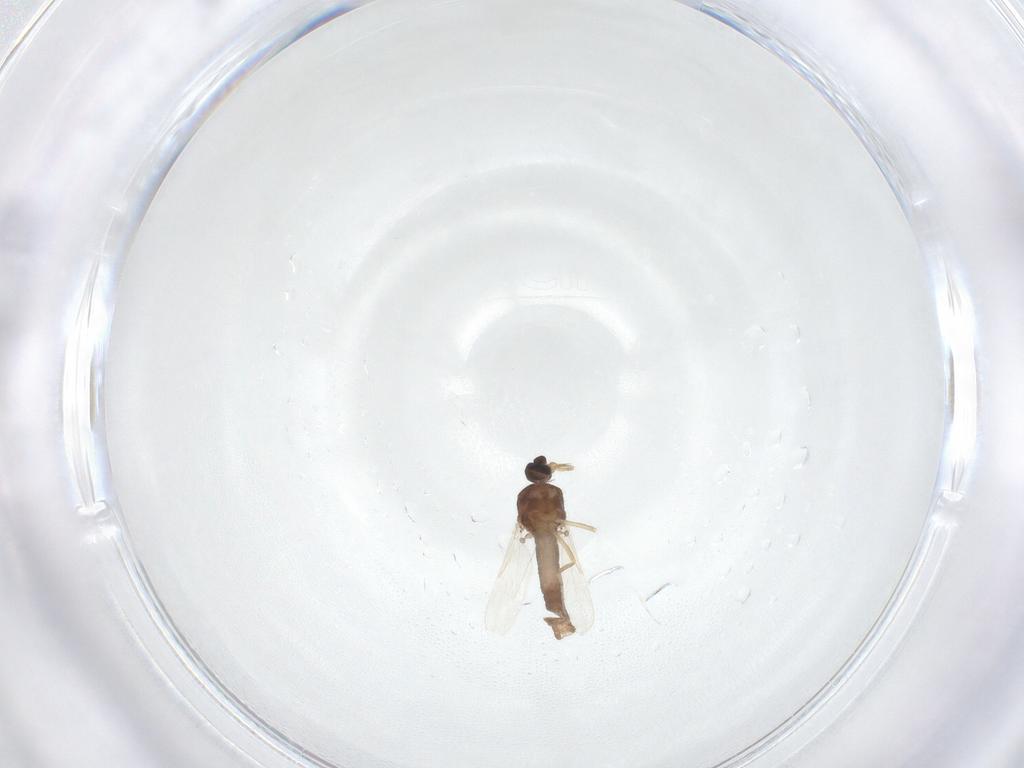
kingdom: Animalia
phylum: Arthropoda
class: Insecta
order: Diptera
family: Ceratopogonidae
